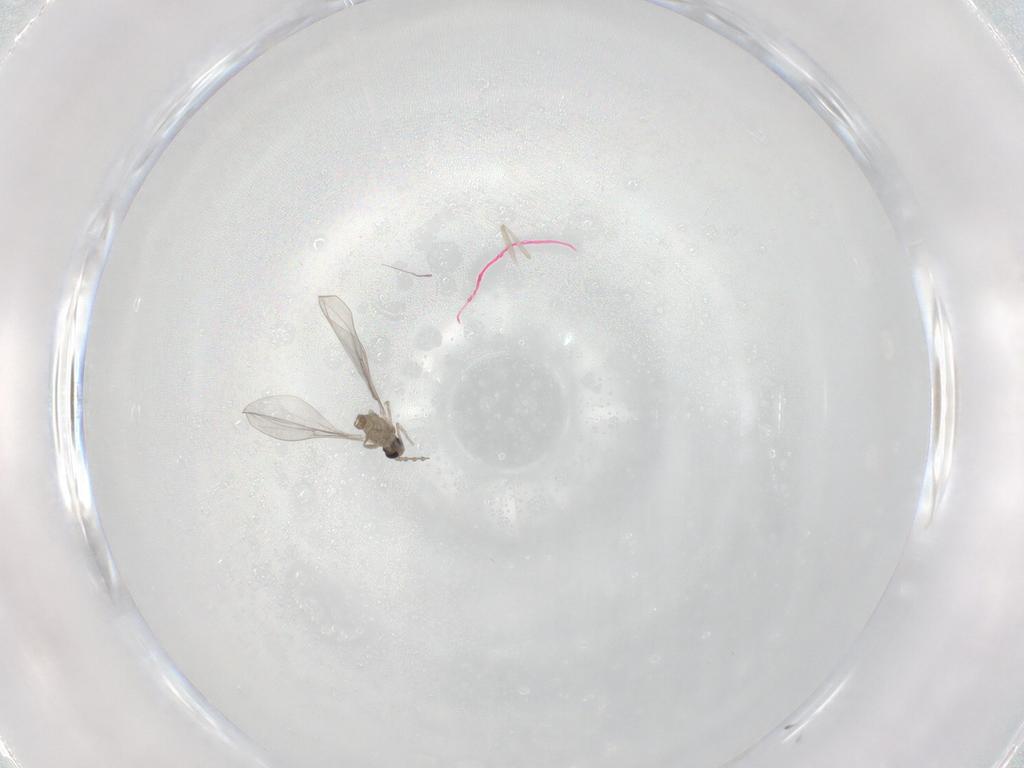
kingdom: Animalia
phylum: Arthropoda
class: Insecta
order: Diptera
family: Cecidomyiidae
